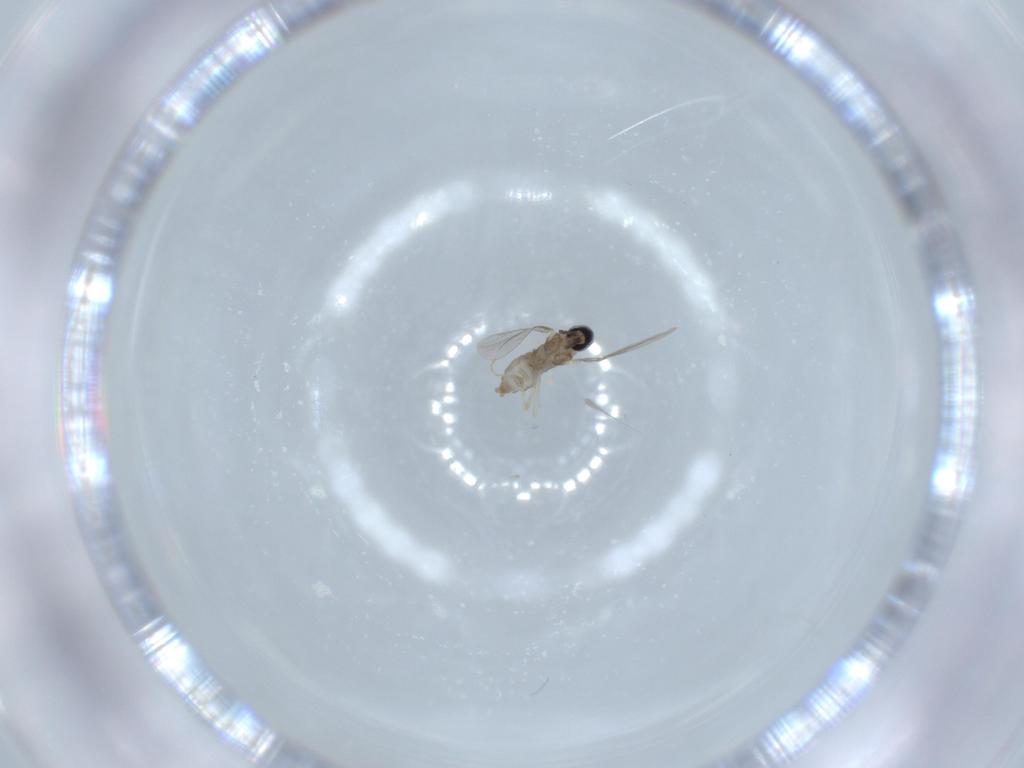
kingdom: Animalia
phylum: Arthropoda
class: Insecta
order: Diptera
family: Cecidomyiidae
